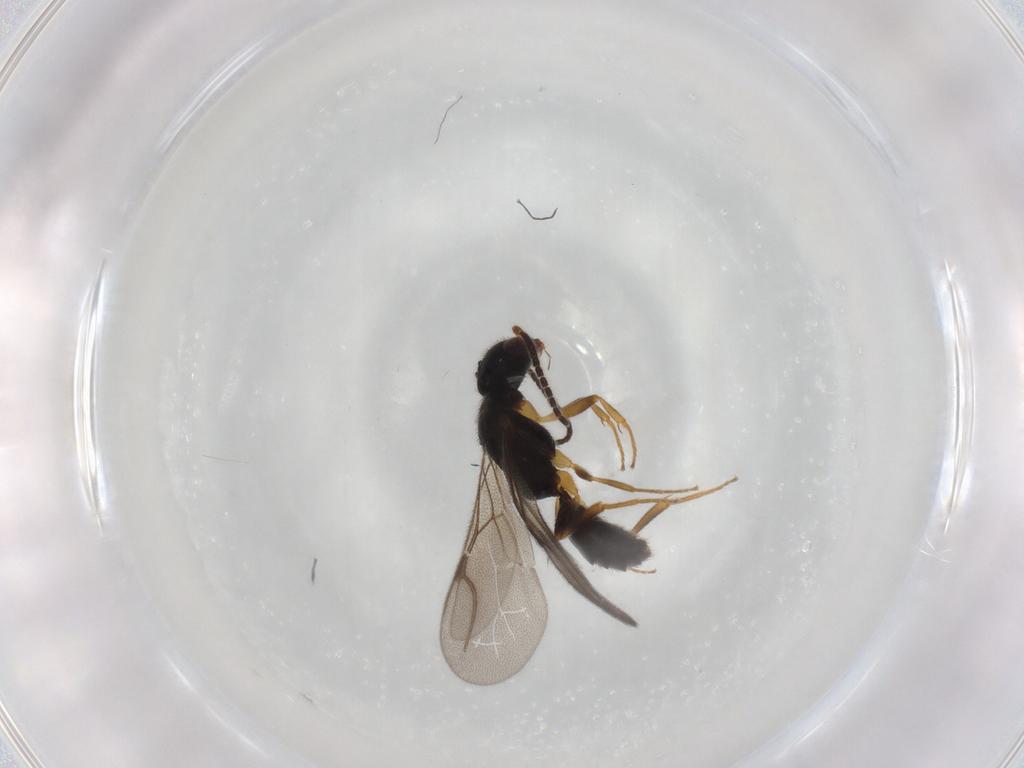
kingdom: Animalia
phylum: Arthropoda
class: Insecta
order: Hymenoptera
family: Bethylidae
